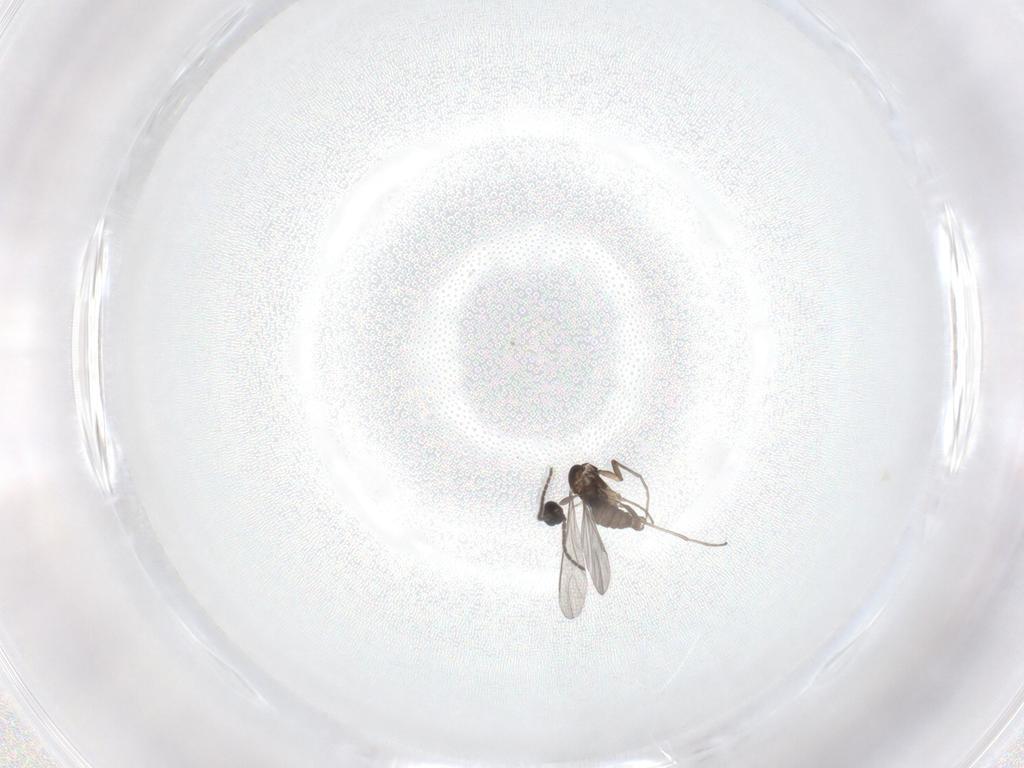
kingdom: Animalia
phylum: Arthropoda
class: Insecta
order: Diptera
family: Sciaridae
